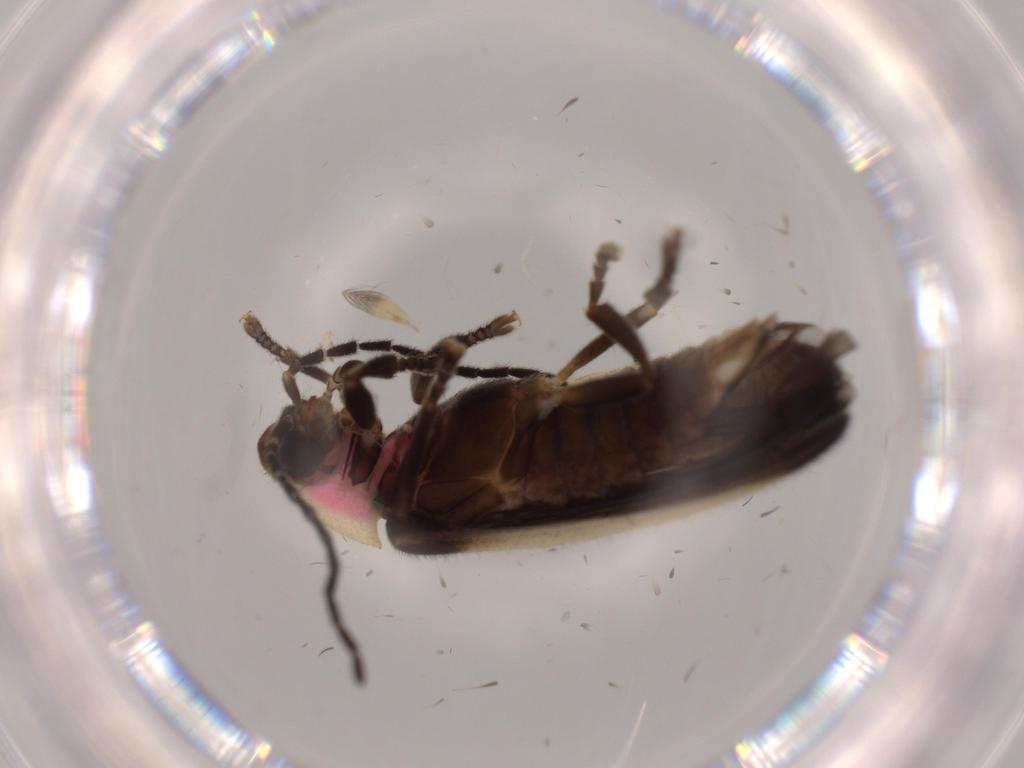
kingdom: Animalia
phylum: Arthropoda
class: Insecta
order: Coleoptera
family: Lampyridae
